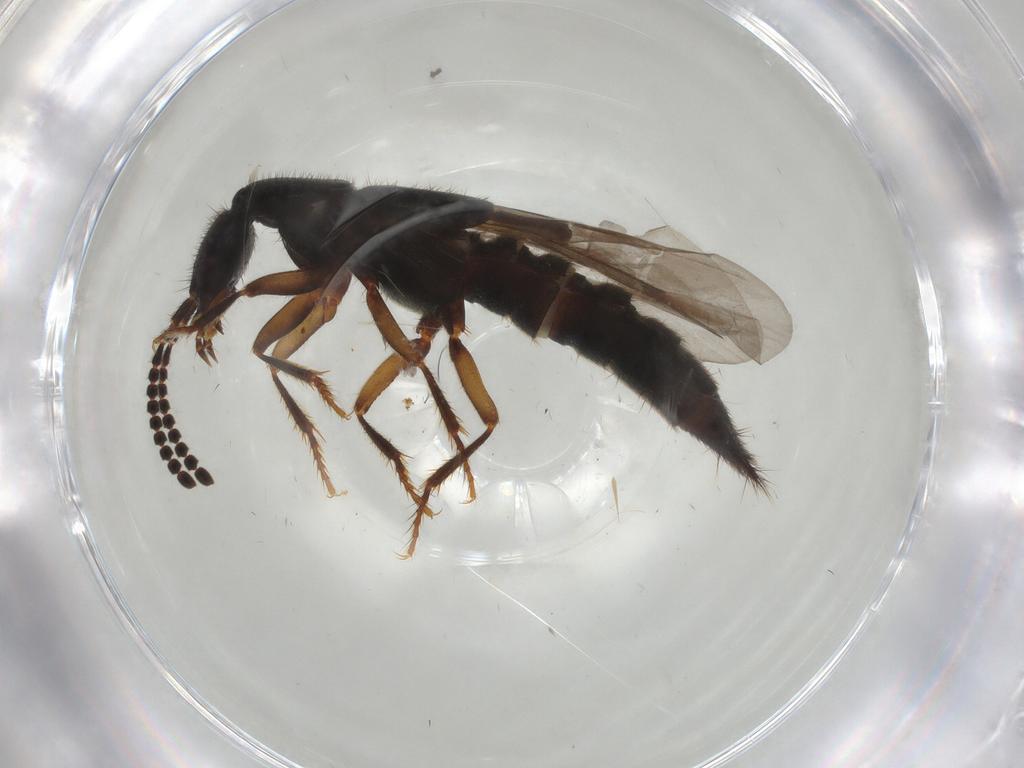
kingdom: Animalia
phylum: Arthropoda
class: Insecta
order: Coleoptera
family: Staphylinidae
